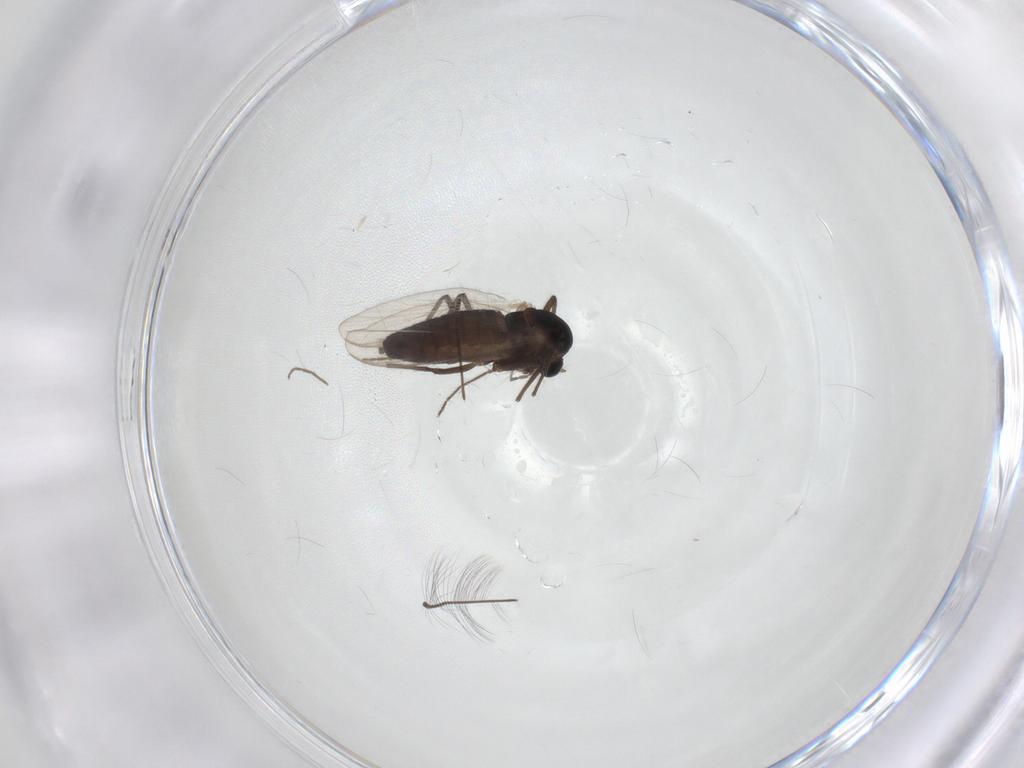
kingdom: Animalia
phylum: Arthropoda
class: Insecta
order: Diptera
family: Chironomidae
